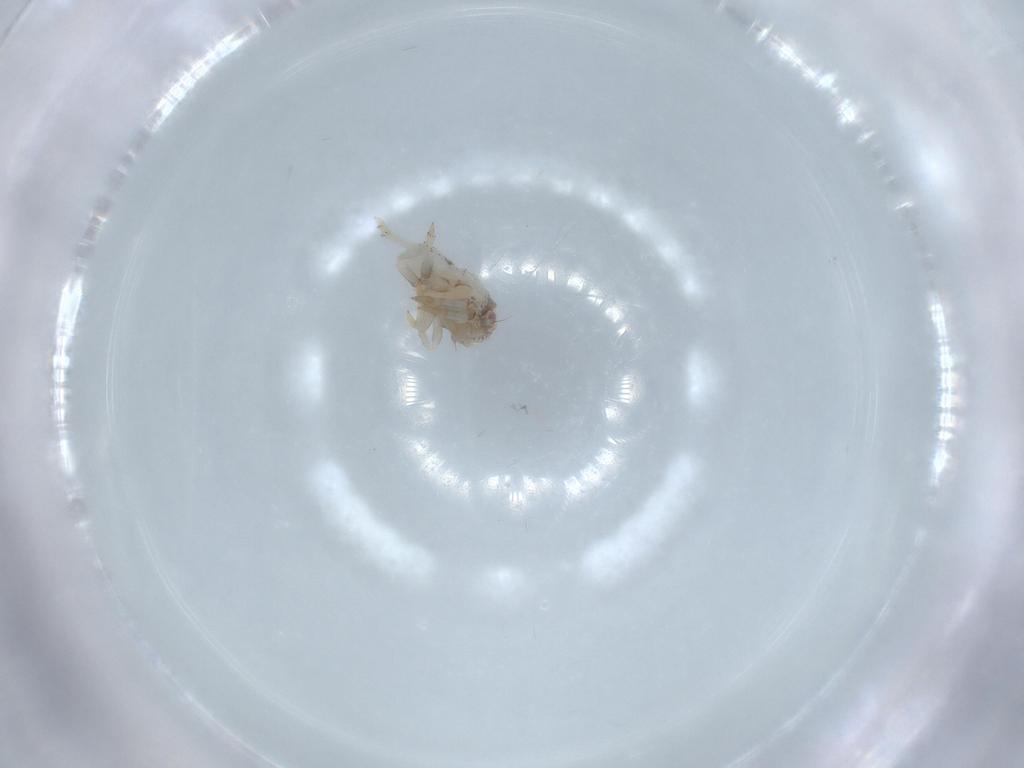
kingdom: Animalia
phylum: Arthropoda
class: Insecta
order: Hemiptera
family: Acanaloniidae
